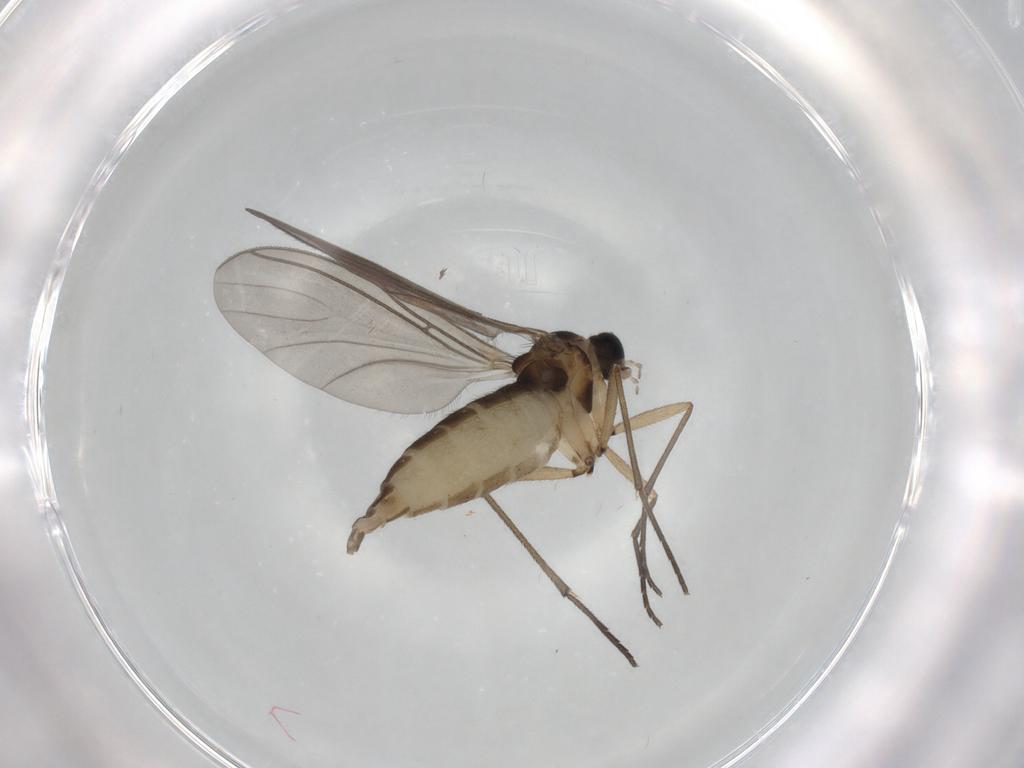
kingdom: Animalia
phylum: Arthropoda
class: Insecta
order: Diptera
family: Sciaridae
